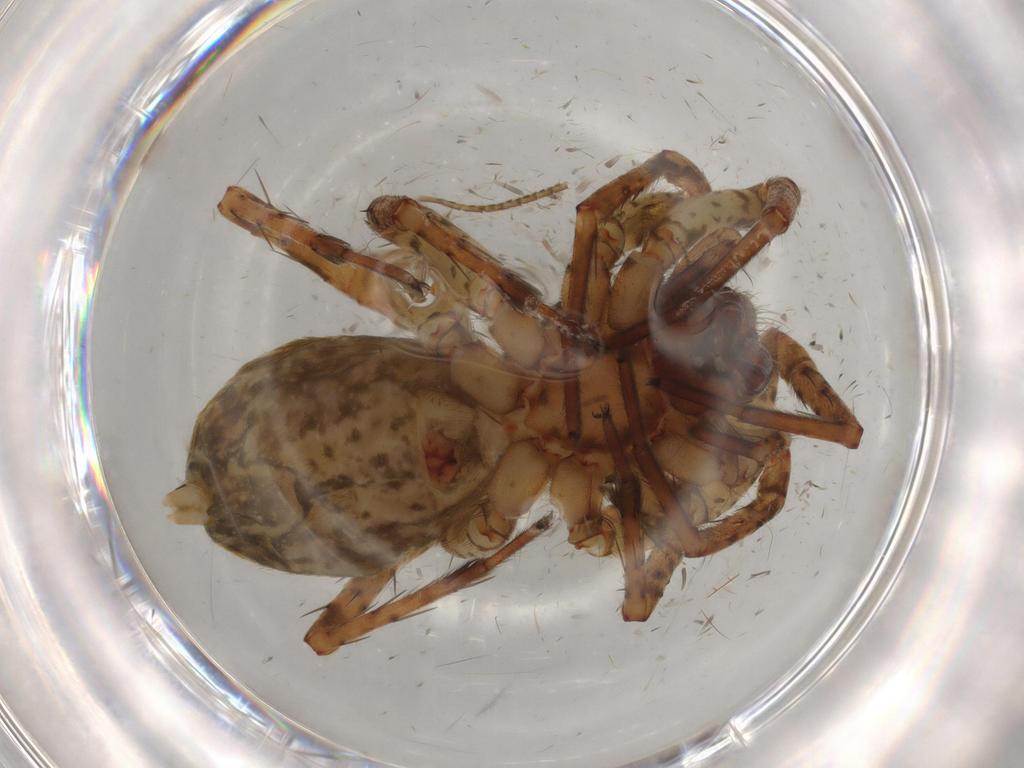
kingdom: Animalia
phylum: Arthropoda
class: Arachnida
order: Araneae
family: Anyphaenidae
